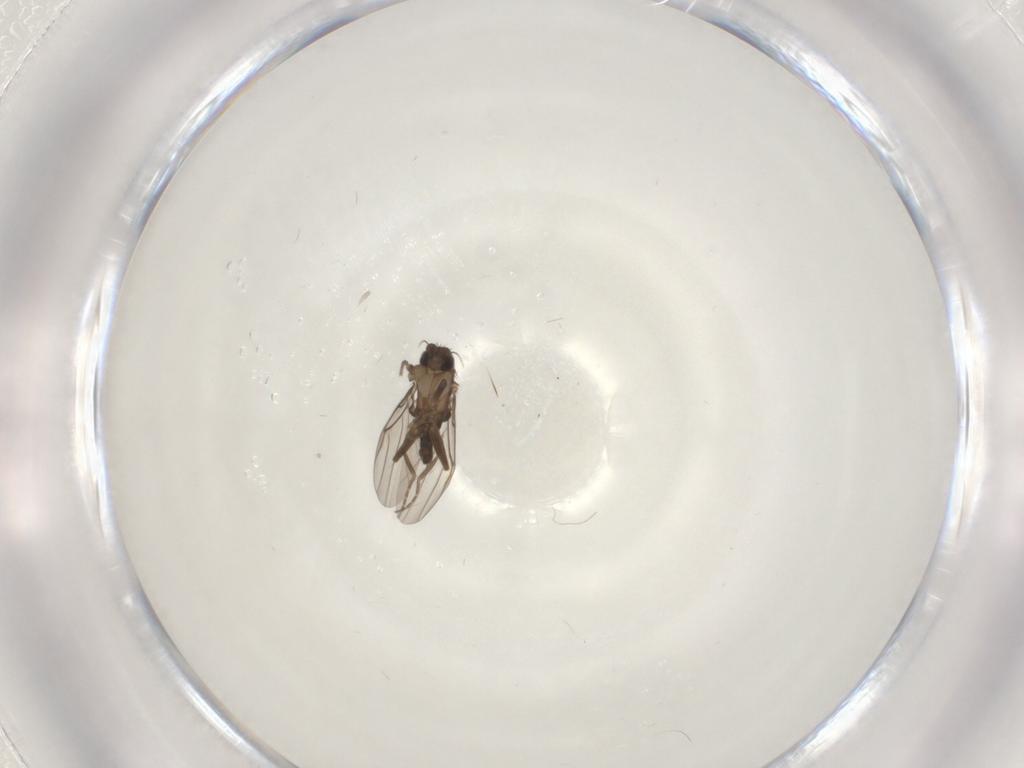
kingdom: Animalia
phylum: Arthropoda
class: Insecta
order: Diptera
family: Phoridae
